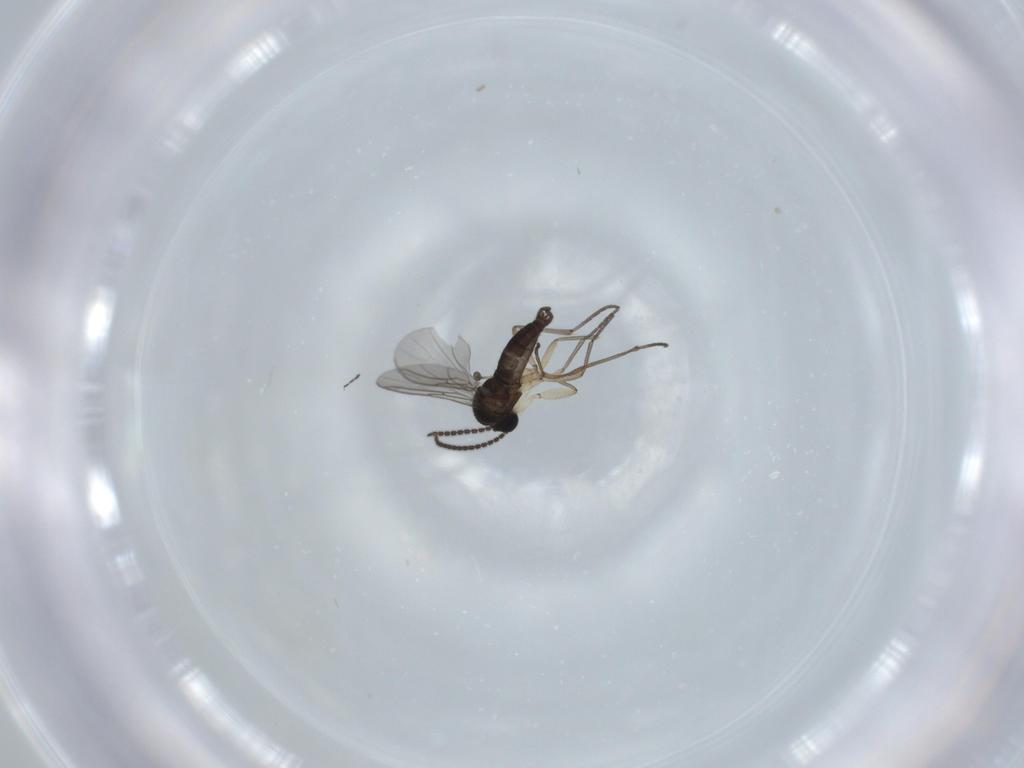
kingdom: Animalia
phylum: Arthropoda
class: Insecta
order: Diptera
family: Sciaridae
